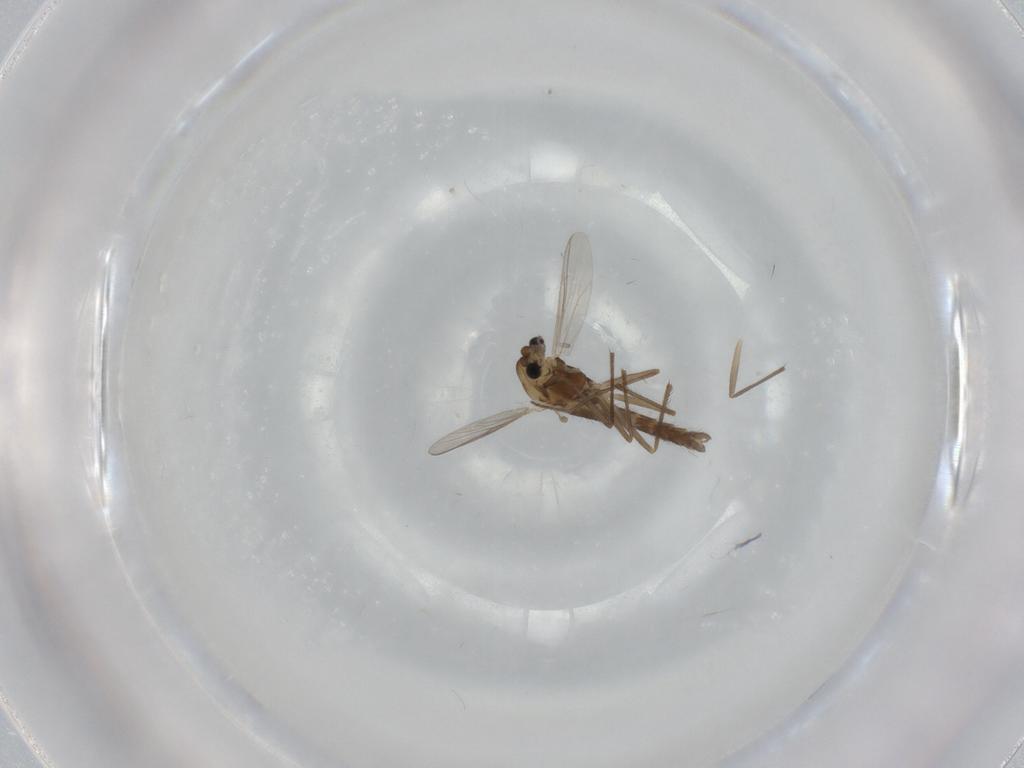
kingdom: Animalia
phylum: Arthropoda
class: Insecta
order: Diptera
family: Chironomidae
